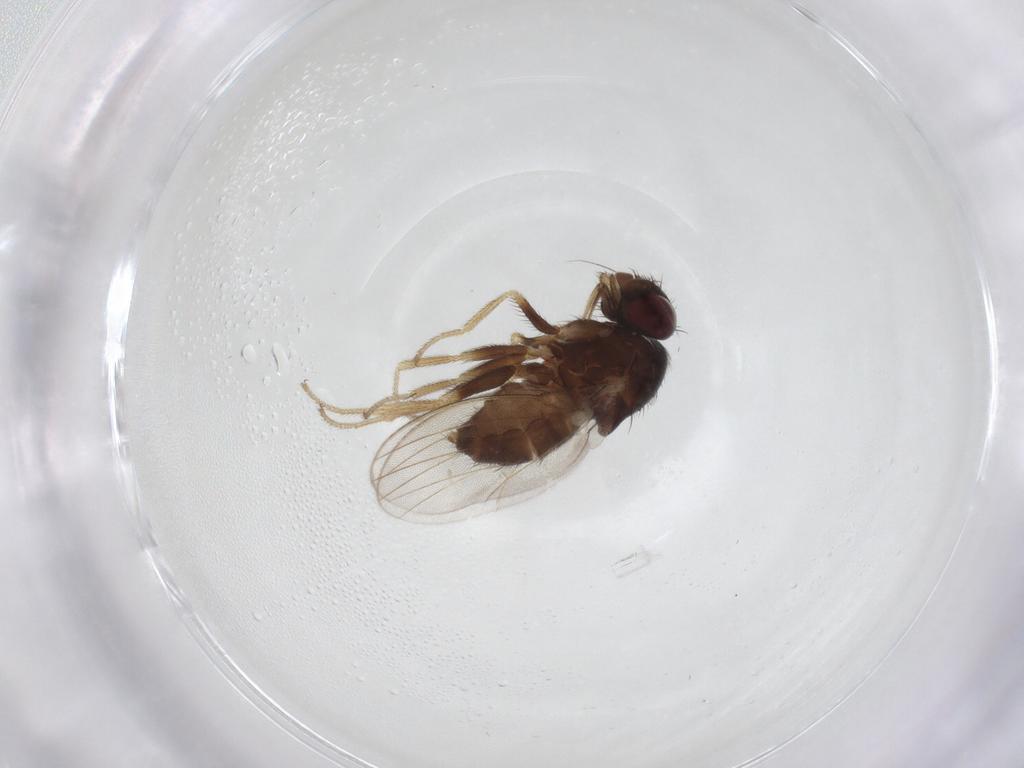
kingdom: Animalia
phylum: Arthropoda
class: Insecta
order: Diptera
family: Milichiidae
